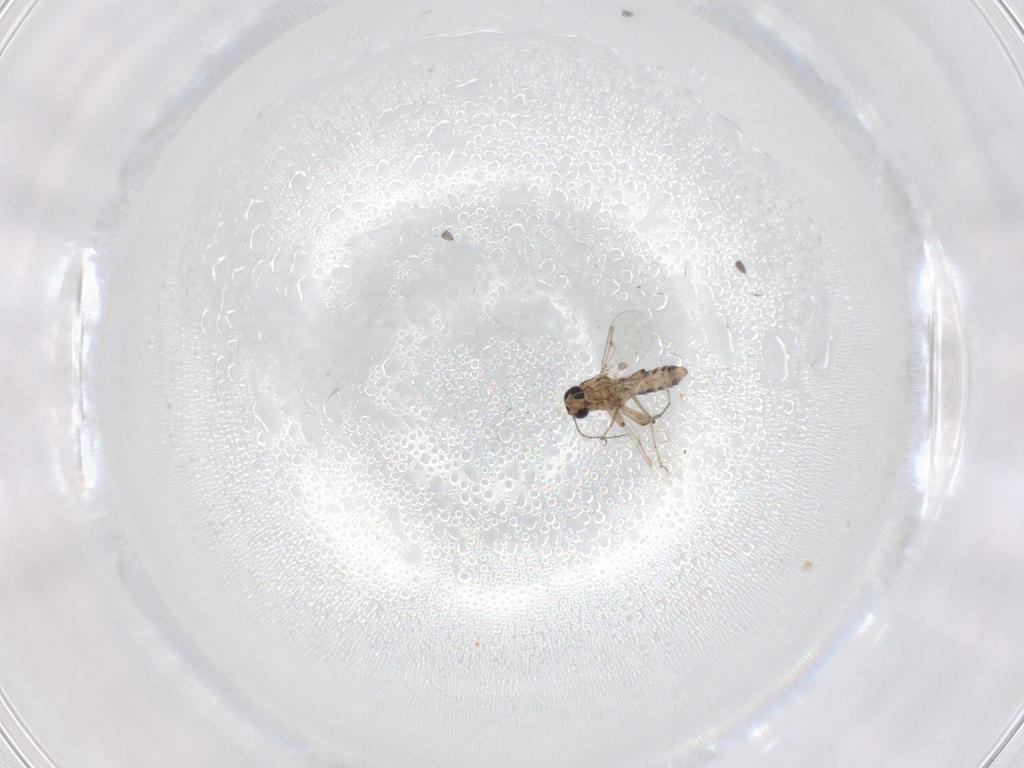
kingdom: Animalia
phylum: Arthropoda
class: Insecta
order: Diptera
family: Ceratopogonidae
